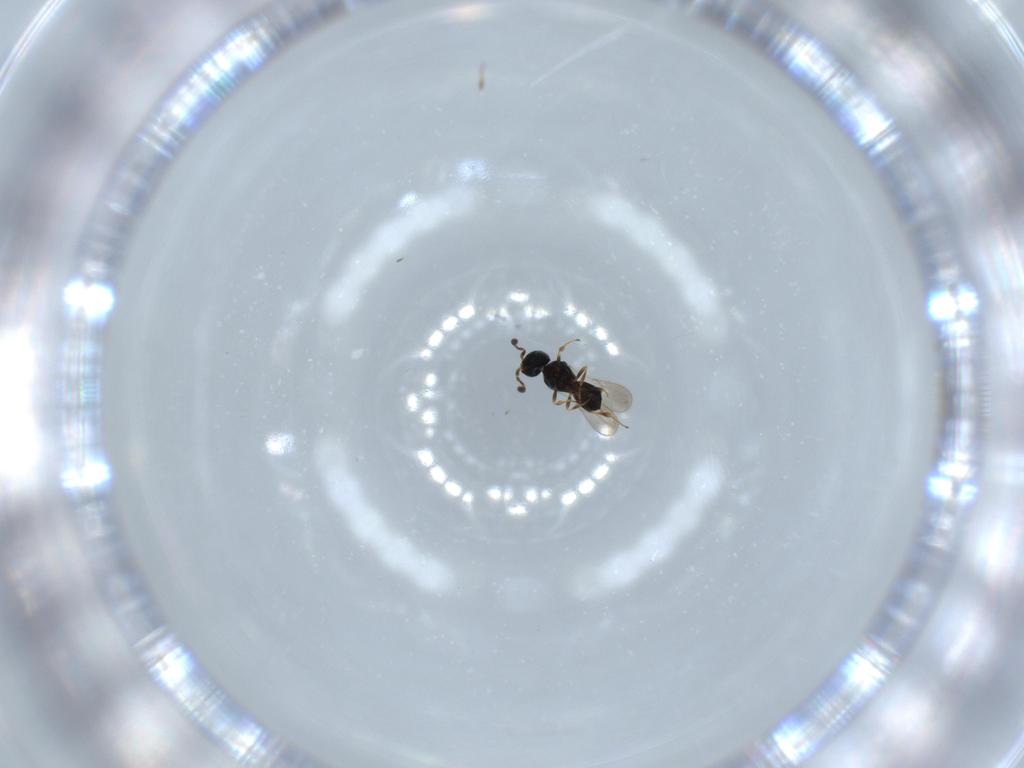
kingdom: Animalia
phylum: Arthropoda
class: Insecta
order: Hymenoptera
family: Scelionidae
